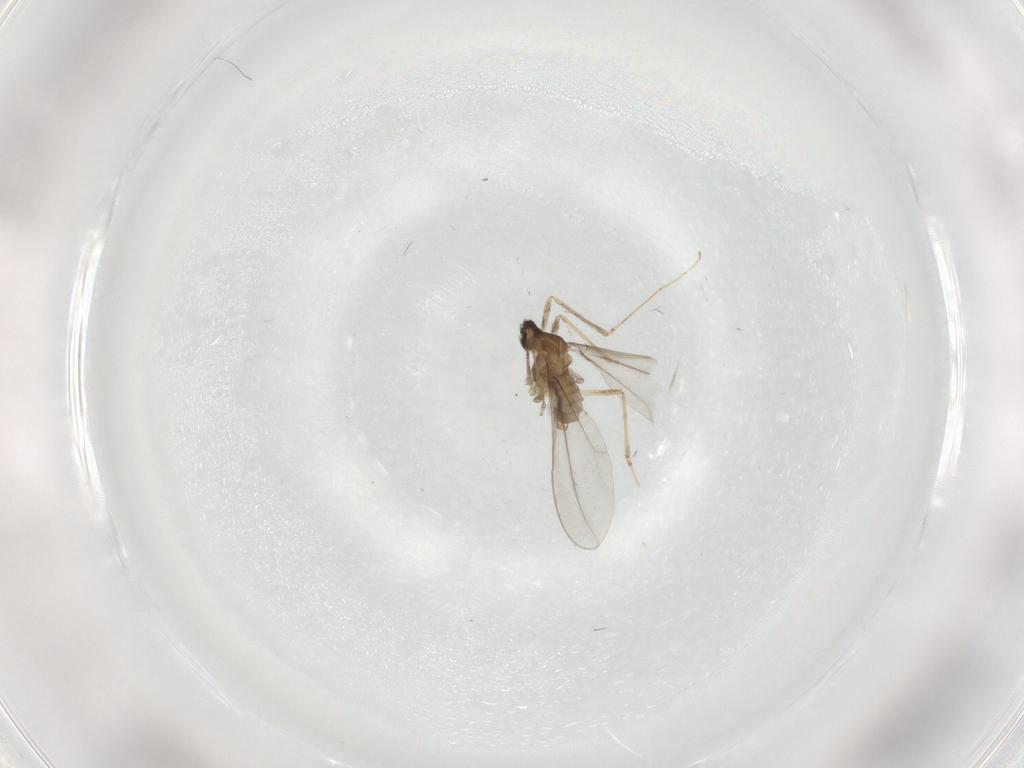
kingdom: Animalia
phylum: Arthropoda
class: Insecta
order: Diptera
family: Cecidomyiidae
